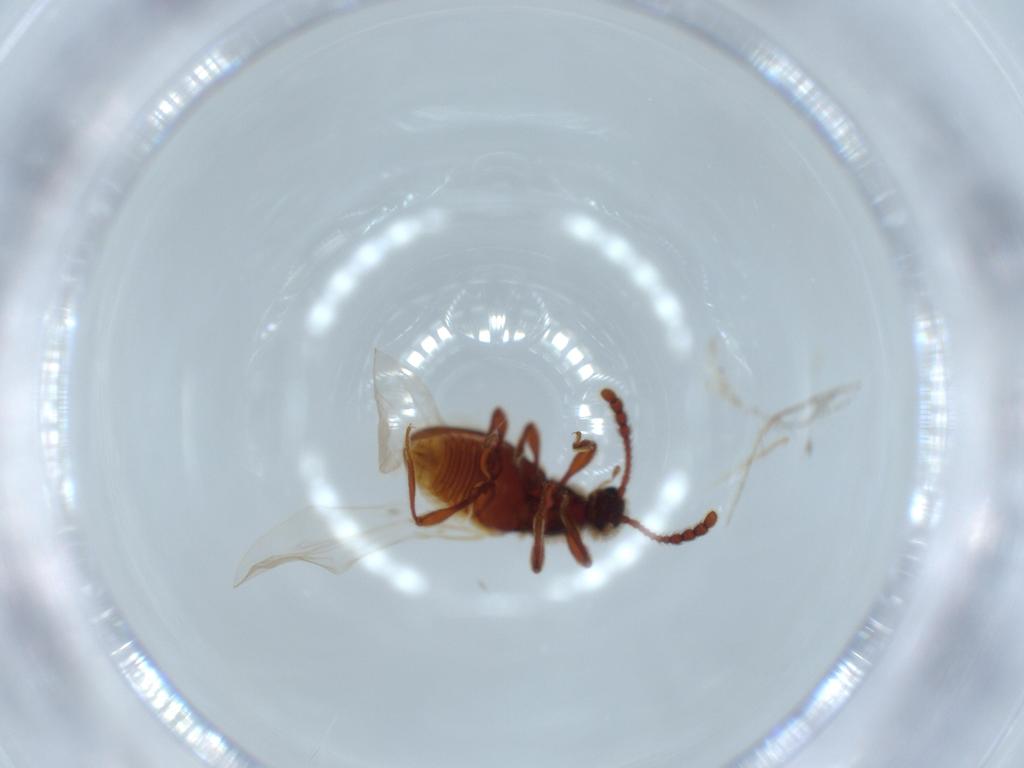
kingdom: Animalia
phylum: Arthropoda
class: Insecta
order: Coleoptera
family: Staphylinidae
